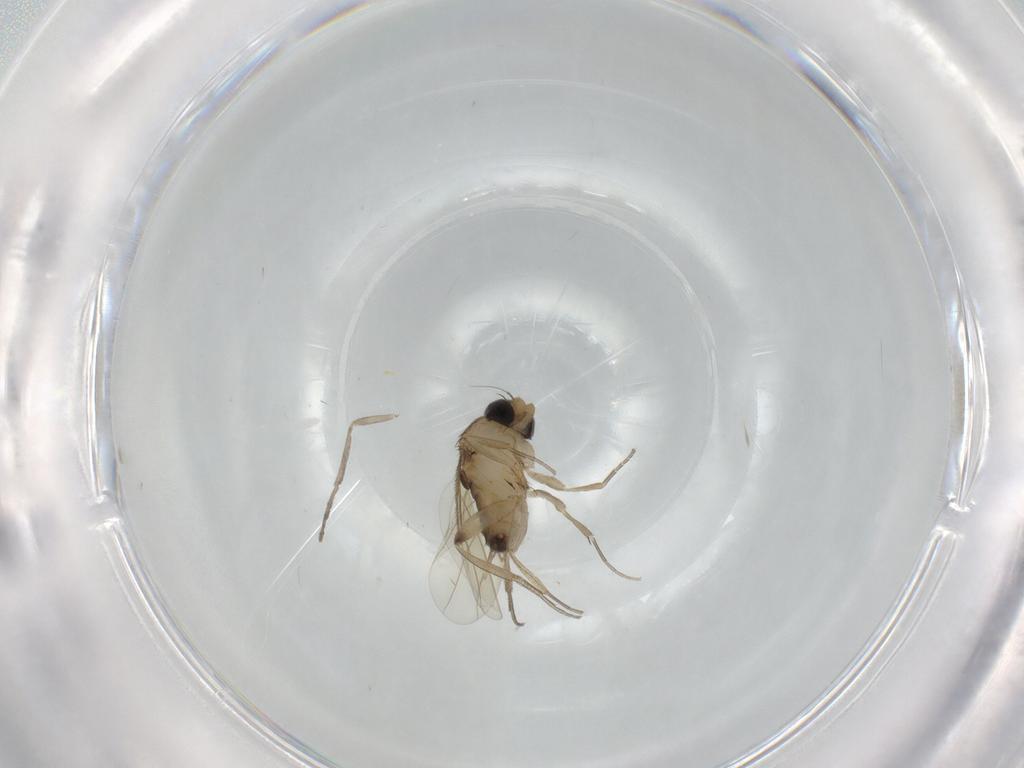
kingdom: Animalia
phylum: Arthropoda
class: Insecta
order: Diptera
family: Phoridae
